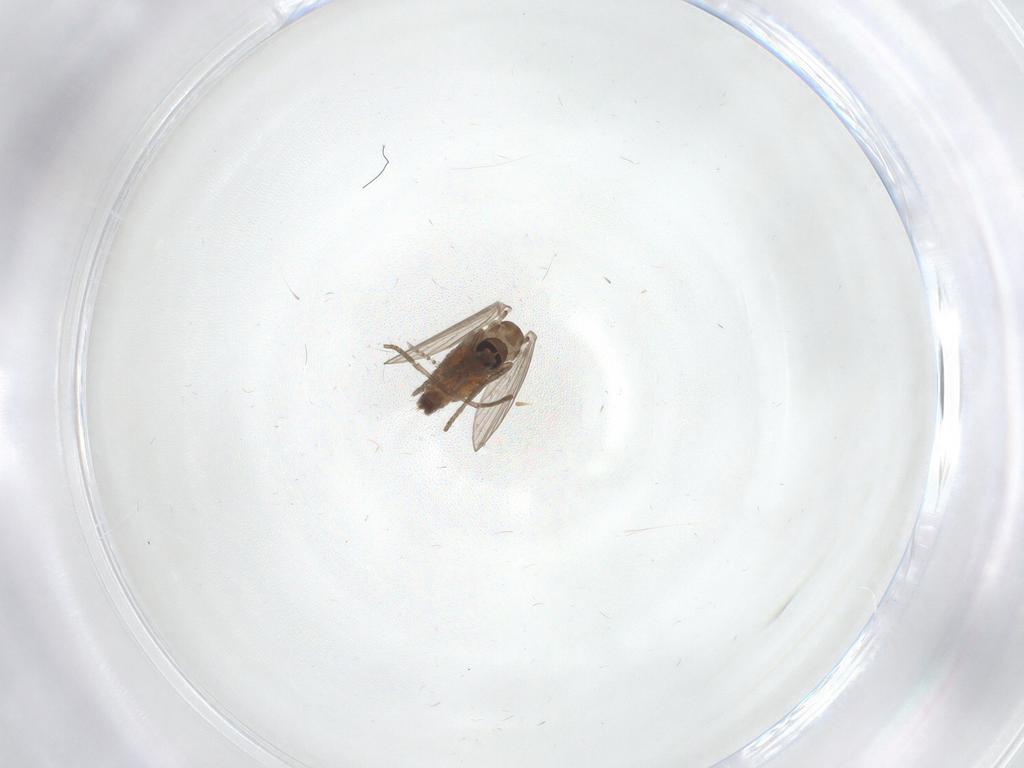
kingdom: Animalia
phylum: Arthropoda
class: Insecta
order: Diptera
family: Psychodidae
